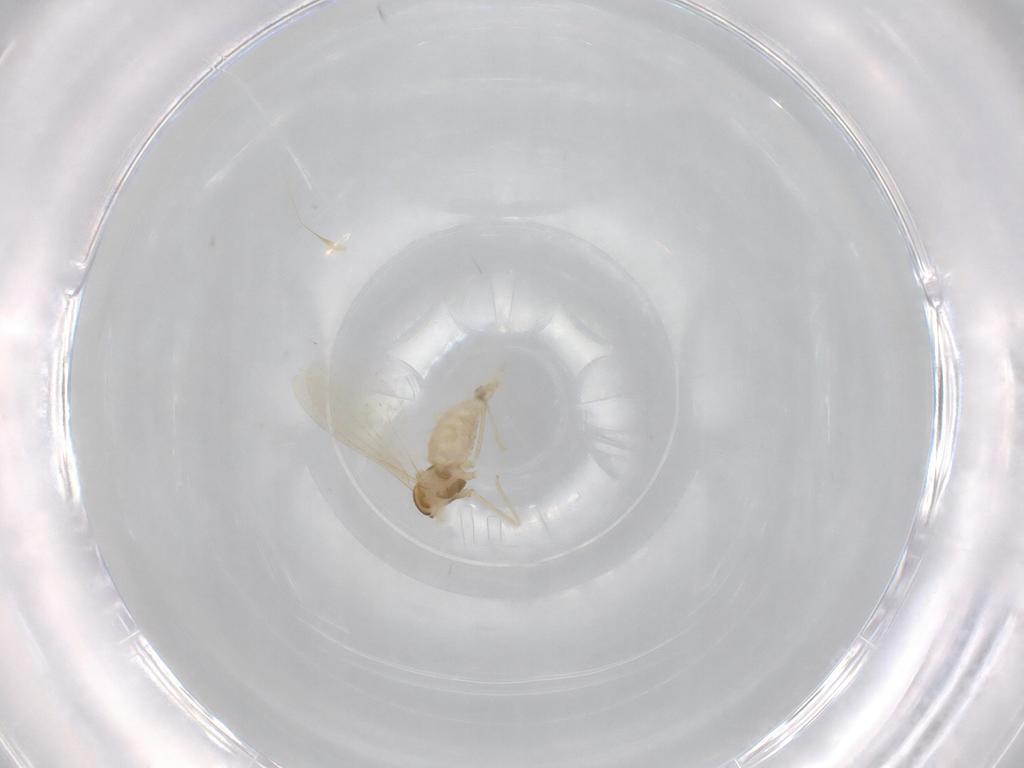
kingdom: Animalia
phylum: Arthropoda
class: Insecta
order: Diptera
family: Cecidomyiidae
